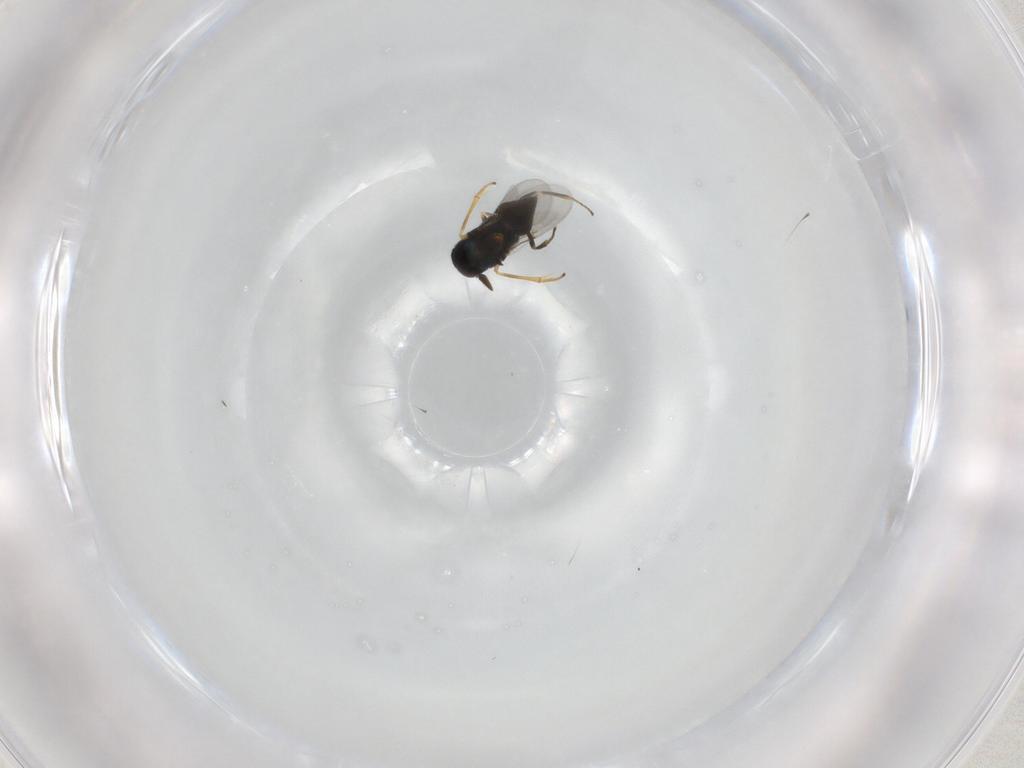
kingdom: Animalia
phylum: Arthropoda
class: Insecta
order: Hymenoptera
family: Encyrtidae
